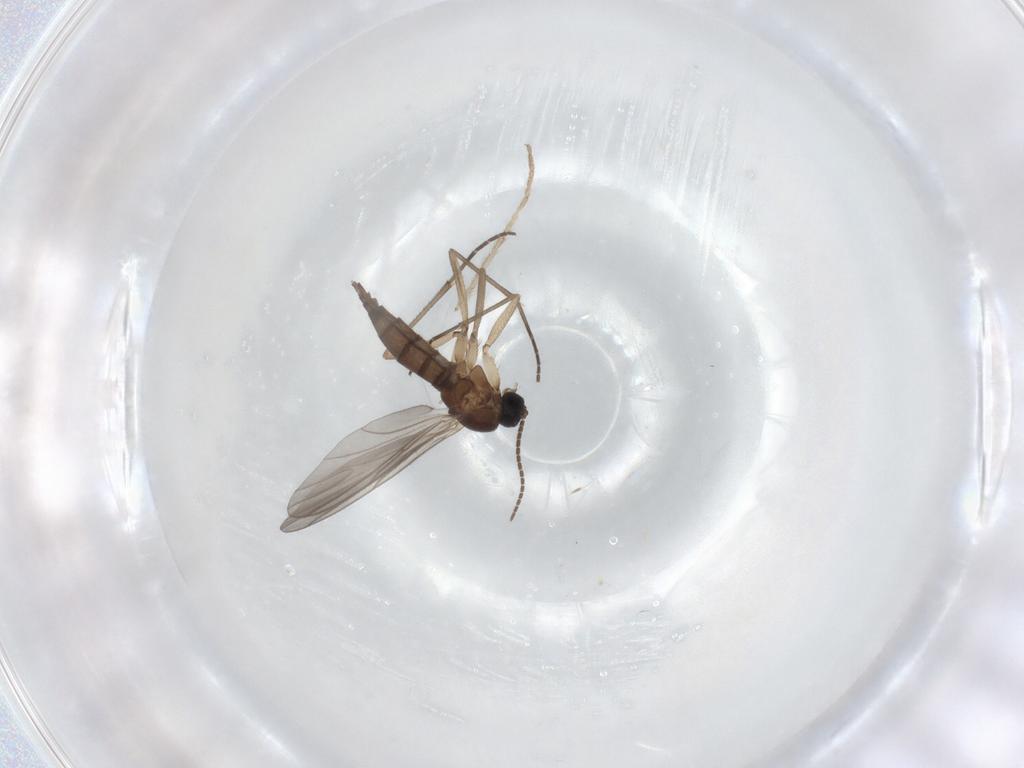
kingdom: Animalia
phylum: Arthropoda
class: Insecta
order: Diptera
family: Sciaridae
